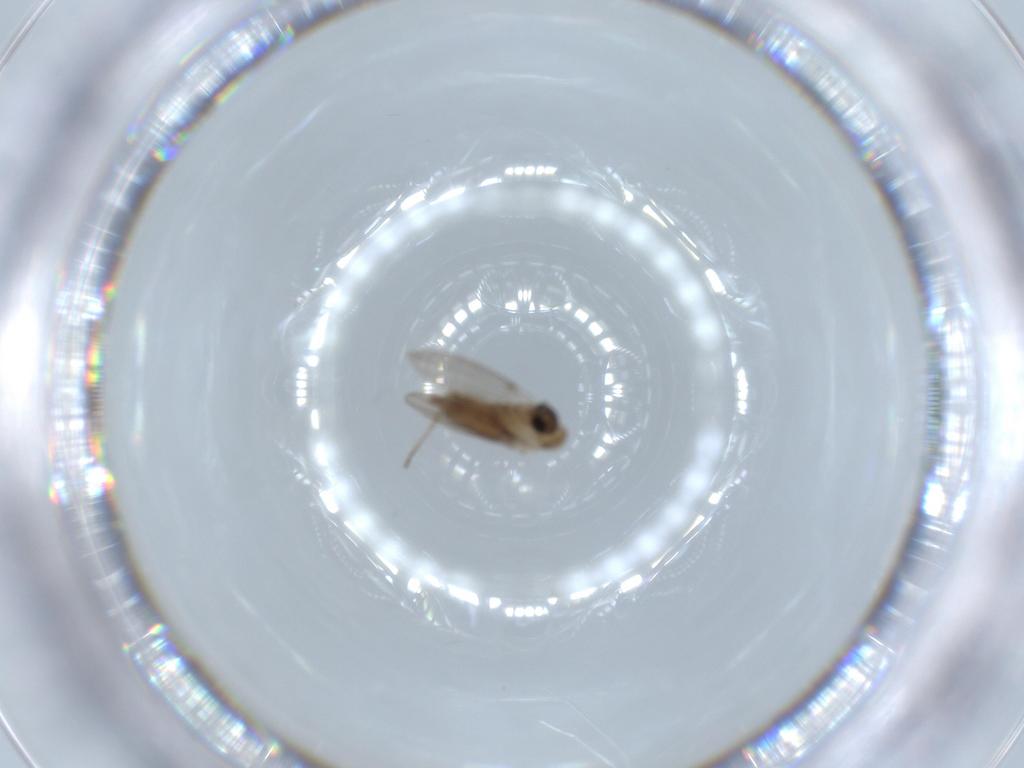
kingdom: Animalia
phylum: Arthropoda
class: Insecta
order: Diptera
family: Psychodidae
